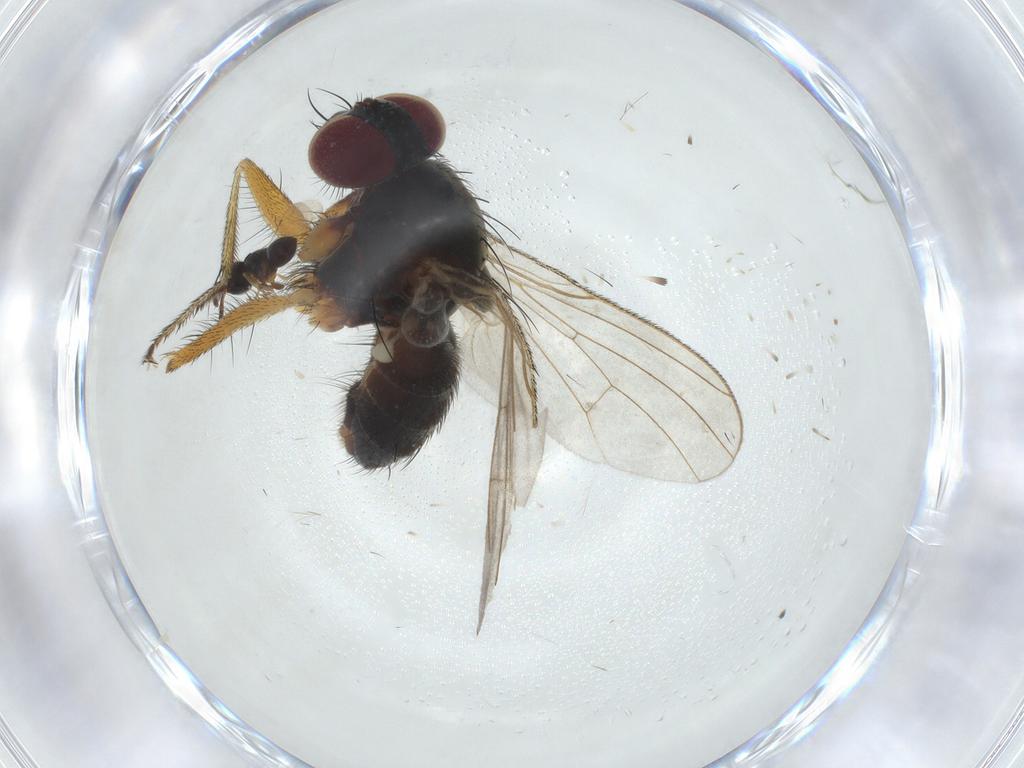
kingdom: Animalia
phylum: Arthropoda
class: Insecta
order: Diptera
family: Muscidae
